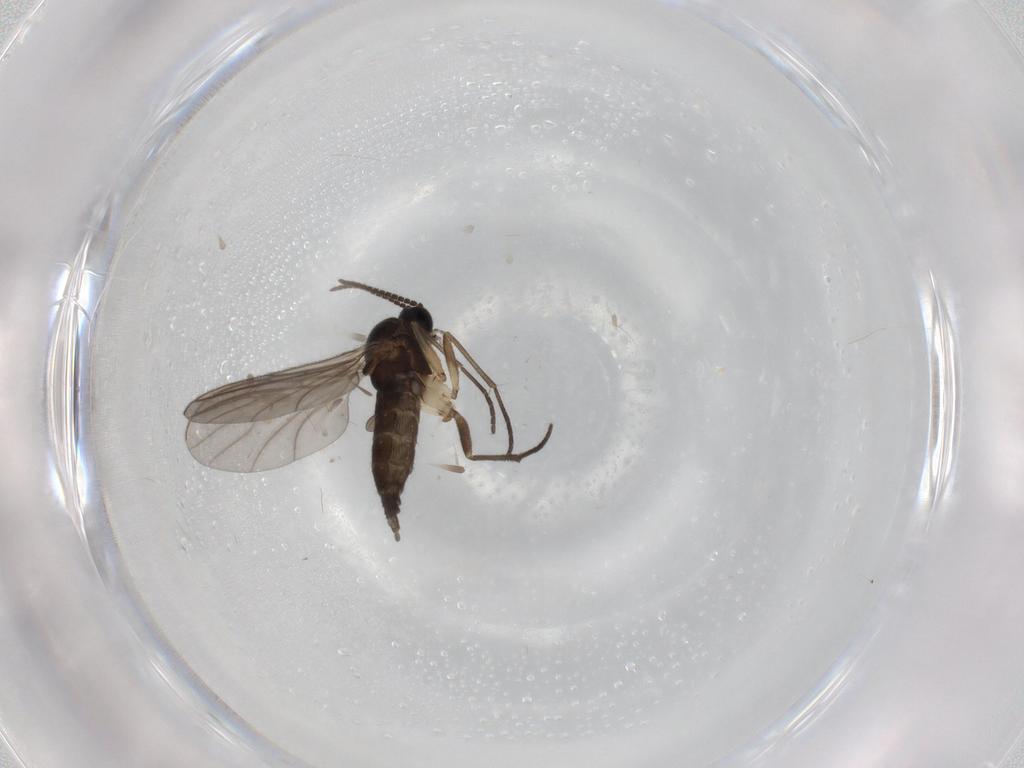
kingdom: Animalia
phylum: Arthropoda
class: Insecta
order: Diptera
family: Sciaridae
